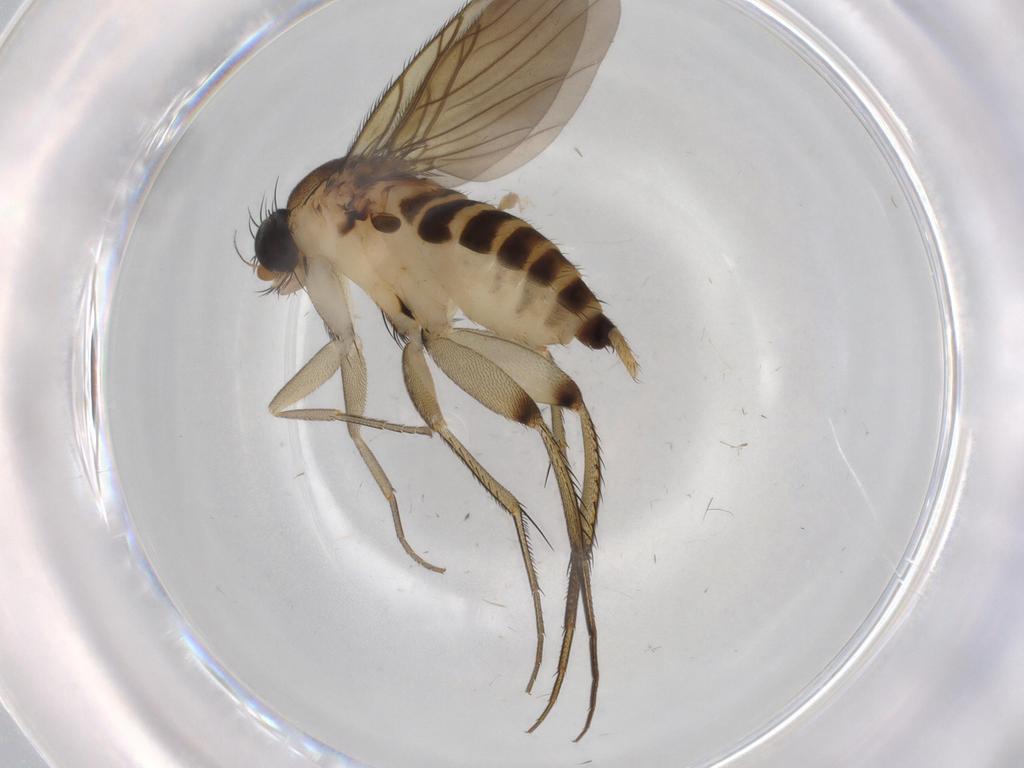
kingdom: Animalia
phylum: Arthropoda
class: Insecta
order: Diptera
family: Phoridae
